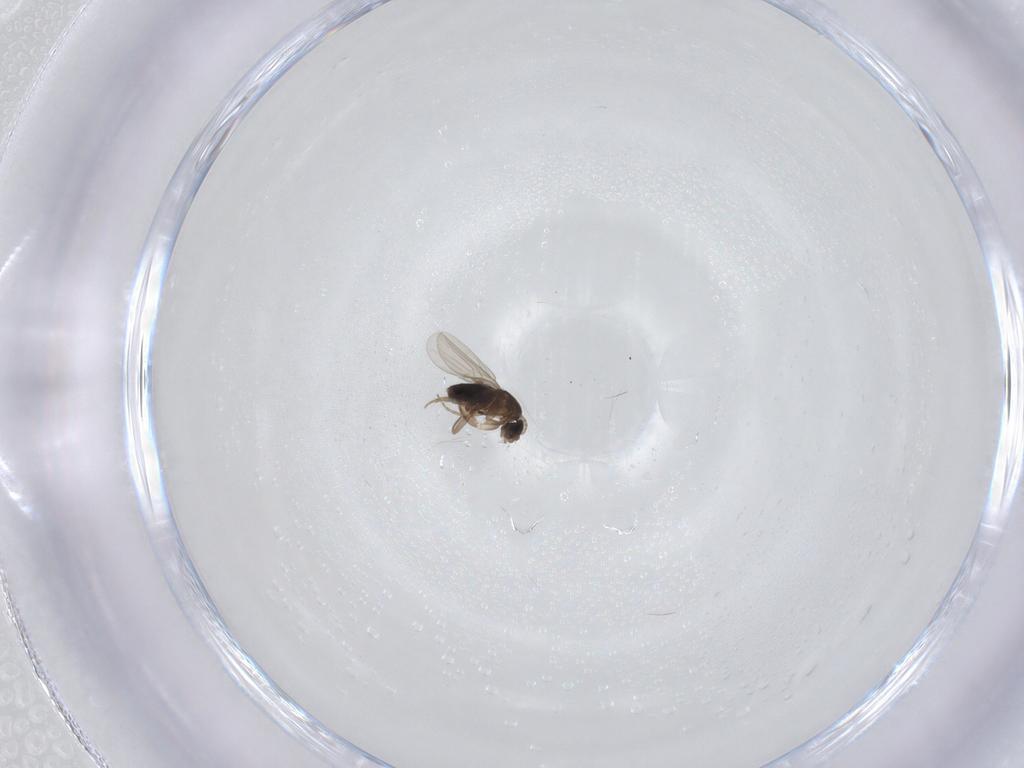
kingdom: Animalia
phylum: Arthropoda
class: Insecta
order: Diptera
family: Phoridae
